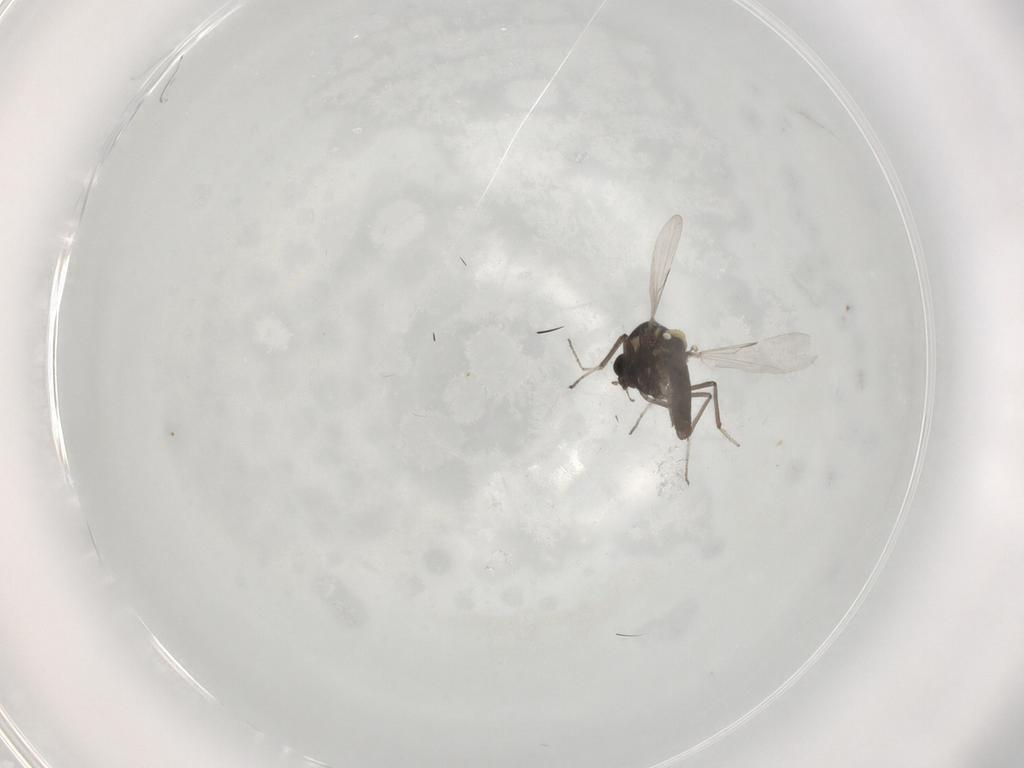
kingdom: Animalia
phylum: Arthropoda
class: Insecta
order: Diptera
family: Ceratopogonidae
